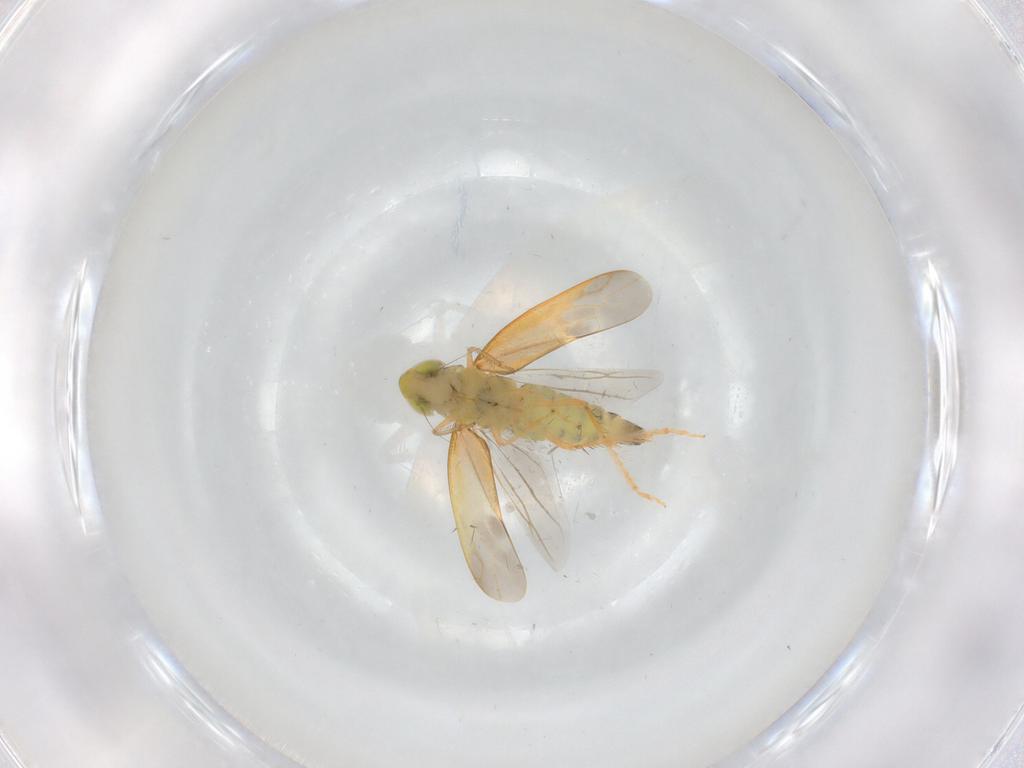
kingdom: Animalia
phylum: Arthropoda
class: Insecta
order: Hemiptera
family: Cicadellidae
